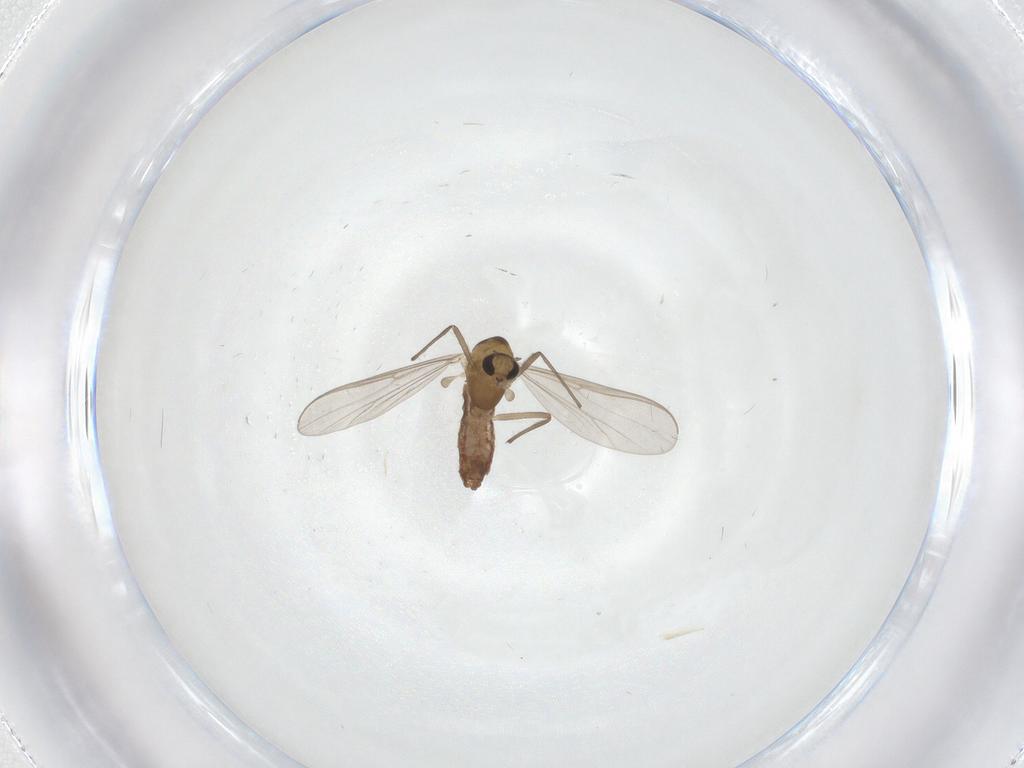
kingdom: Animalia
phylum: Arthropoda
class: Insecta
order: Diptera
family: Chironomidae
